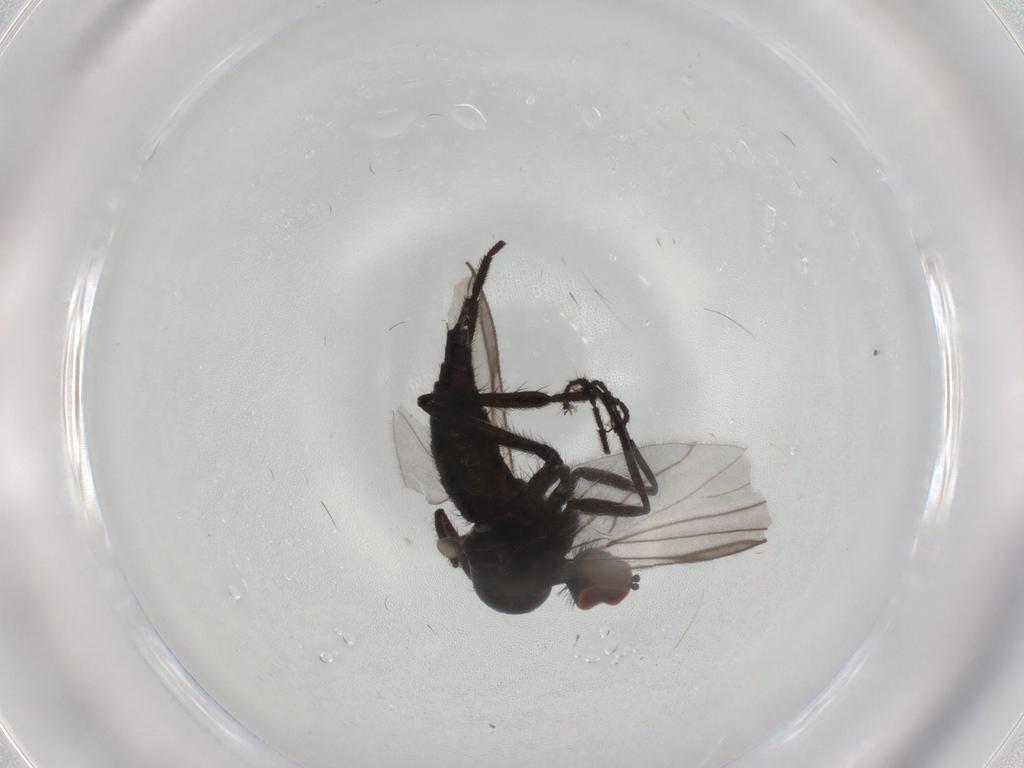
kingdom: Animalia
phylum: Arthropoda
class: Insecta
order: Diptera
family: Hybotidae
